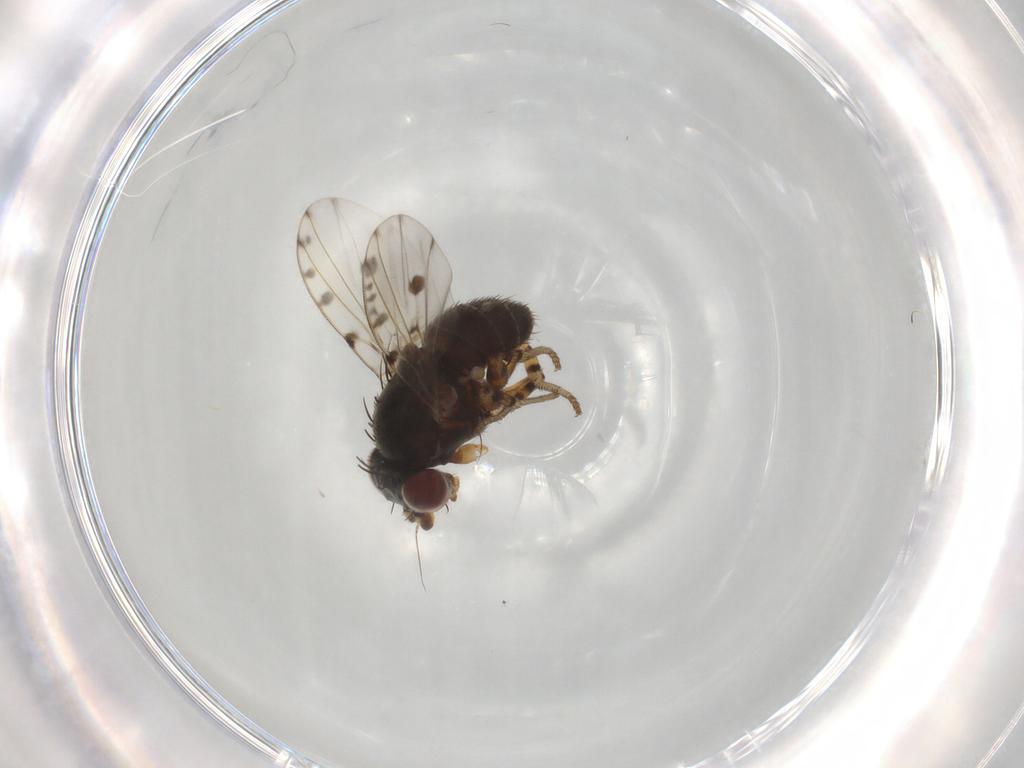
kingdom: Animalia
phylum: Arthropoda
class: Insecta
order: Diptera
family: Odiniidae
